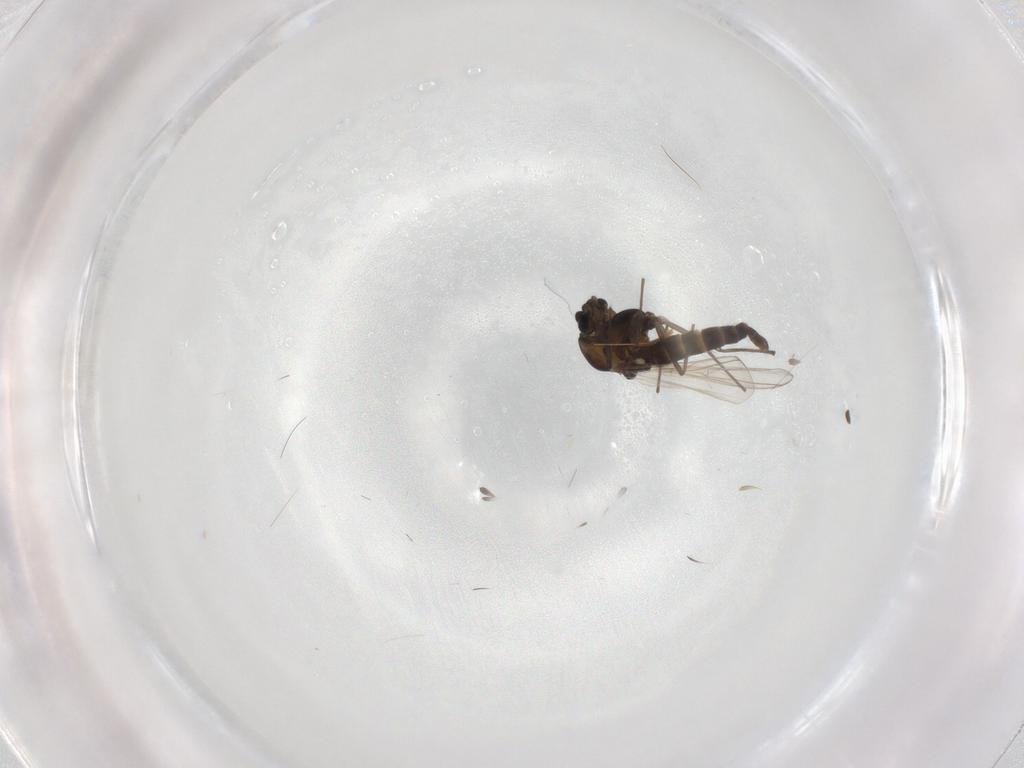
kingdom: Animalia
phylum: Arthropoda
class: Insecta
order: Diptera
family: Chironomidae
